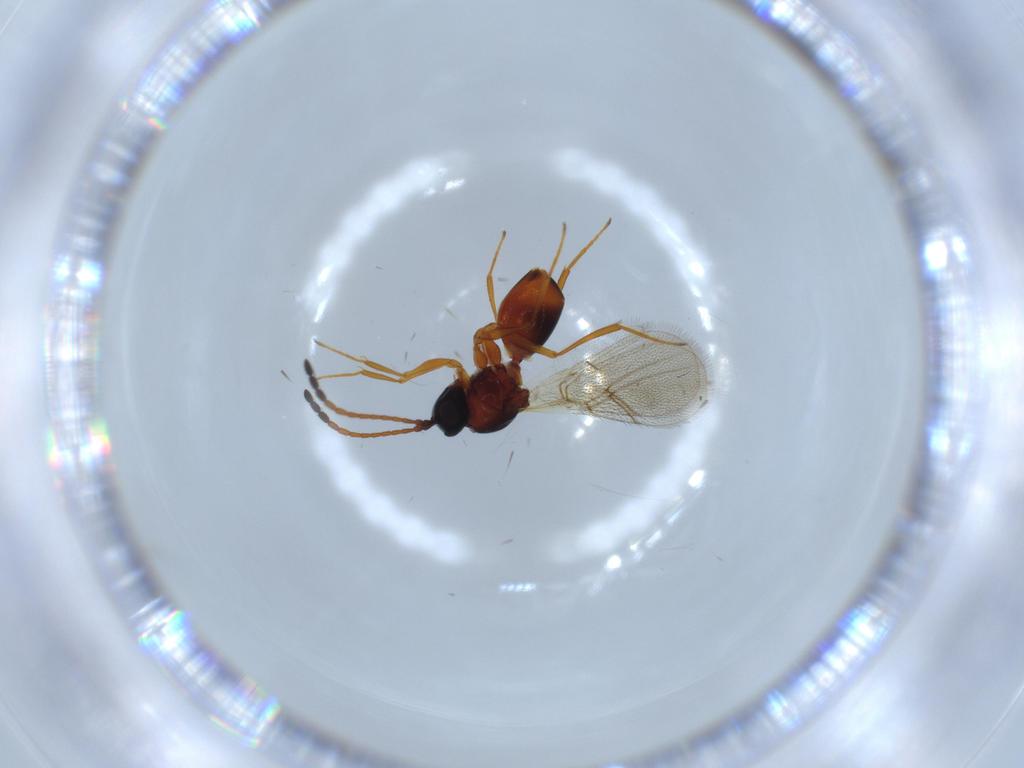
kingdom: Animalia
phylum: Arthropoda
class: Insecta
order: Hymenoptera
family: Figitidae
